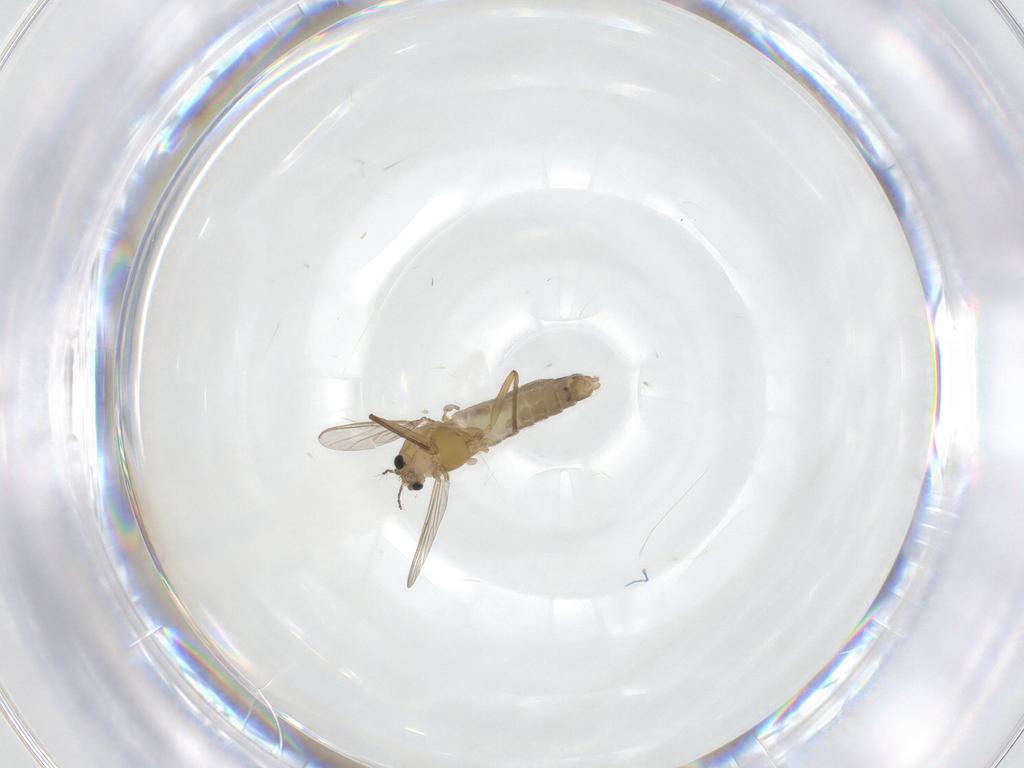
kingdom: Animalia
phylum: Arthropoda
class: Insecta
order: Diptera
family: Chironomidae
